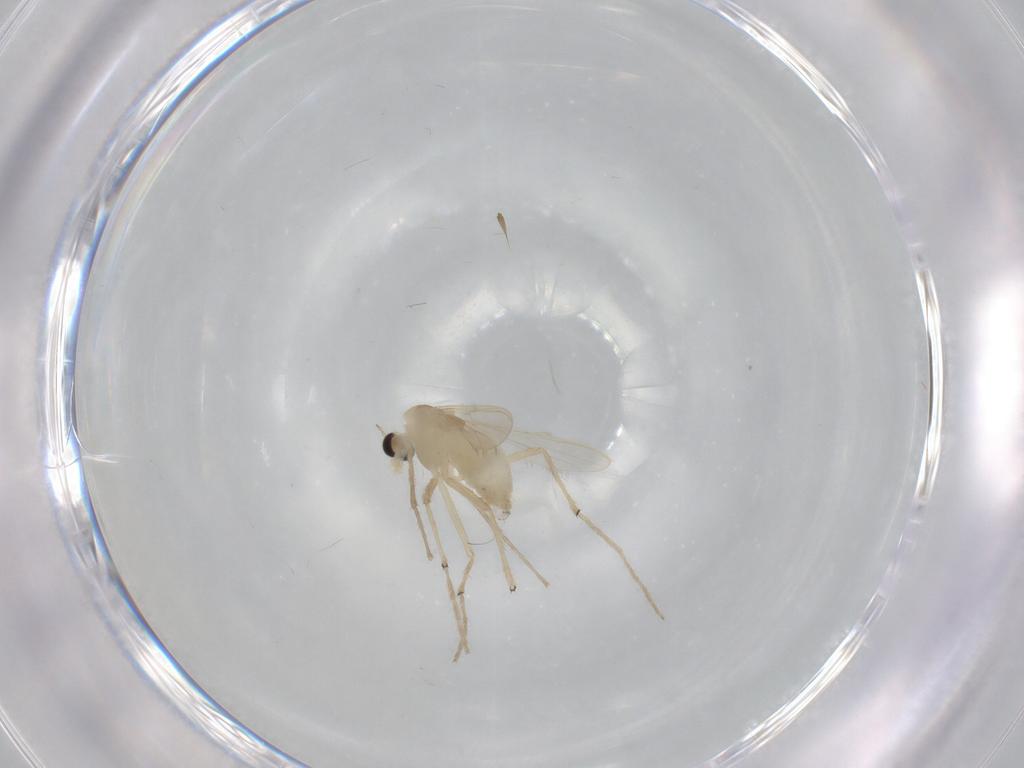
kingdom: Animalia
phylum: Arthropoda
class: Insecta
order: Diptera
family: Chironomidae
